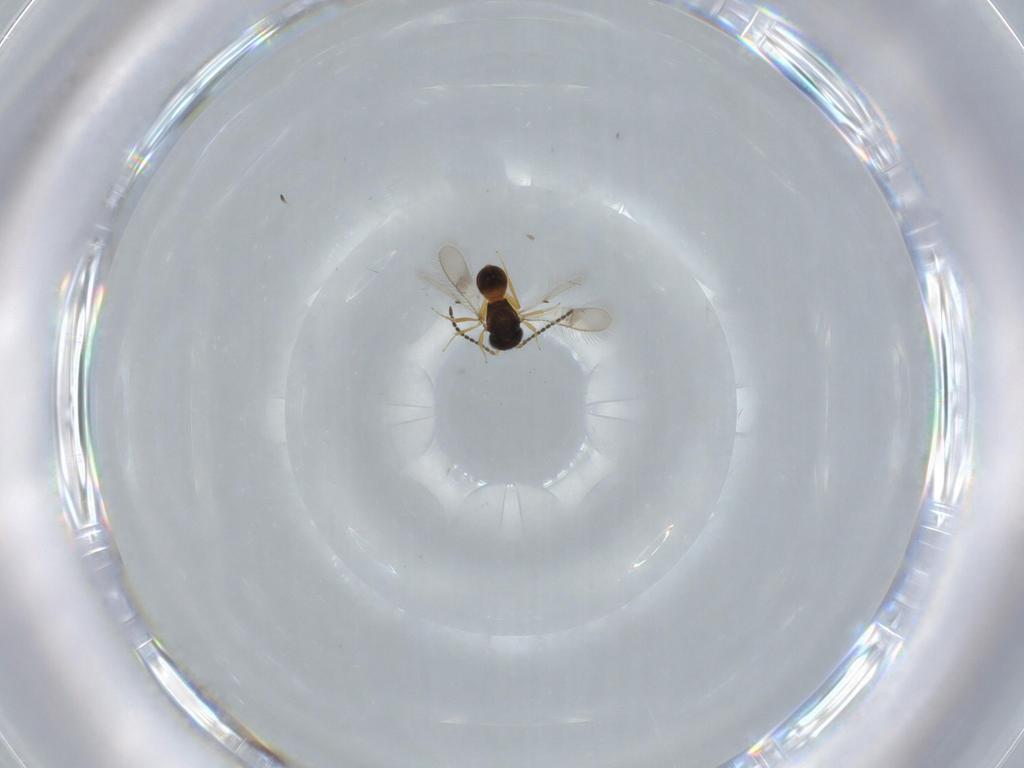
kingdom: Animalia
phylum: Arthropoda
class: Insecta
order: Hymenoptera
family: Scelionidae
